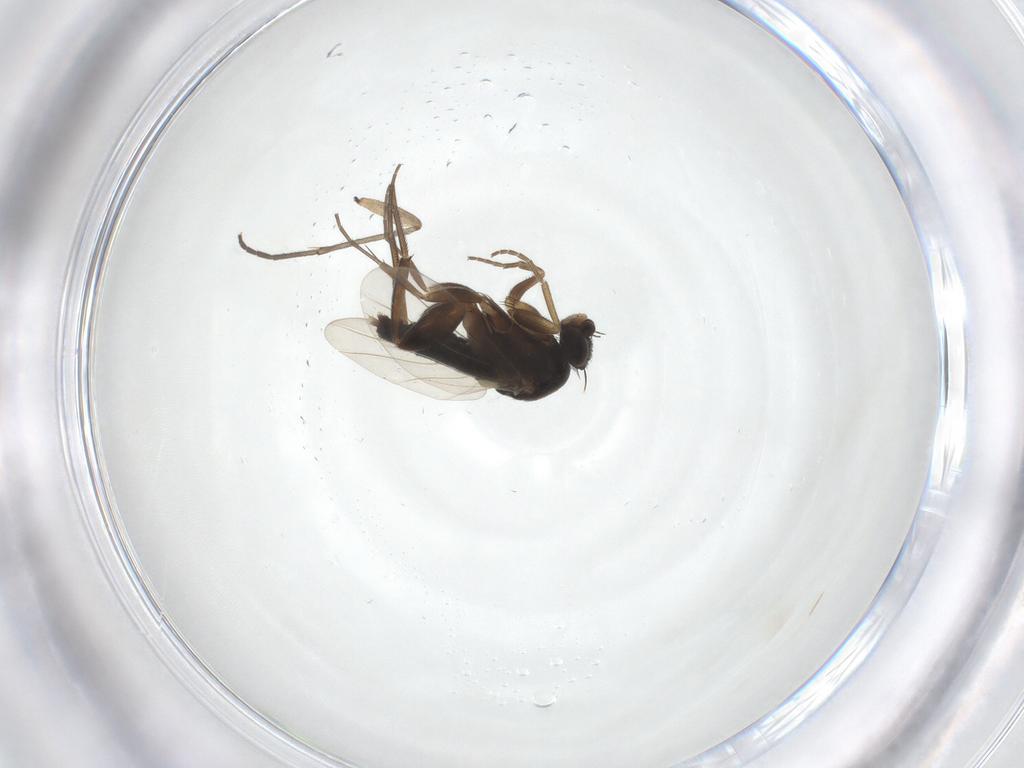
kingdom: Animalia
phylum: Arthropoda
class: Insecta
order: Diptera
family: Sciaridae
